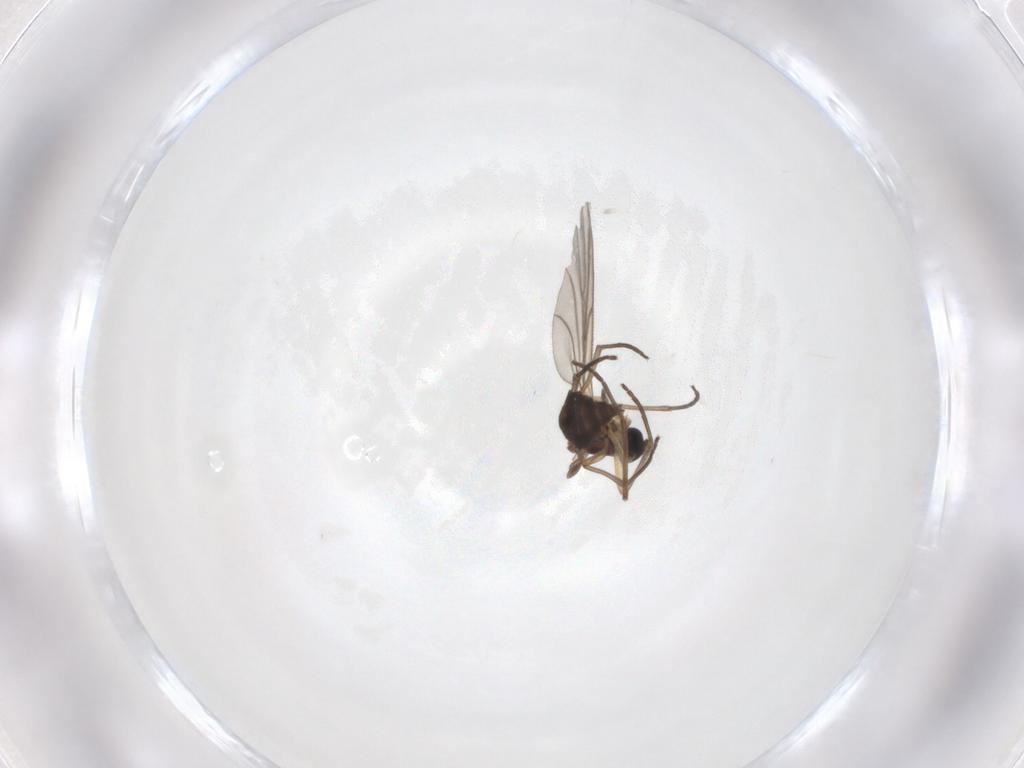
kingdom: Animalia
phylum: Arthropoda
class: Insecta
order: Diptera
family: Sciaridae
